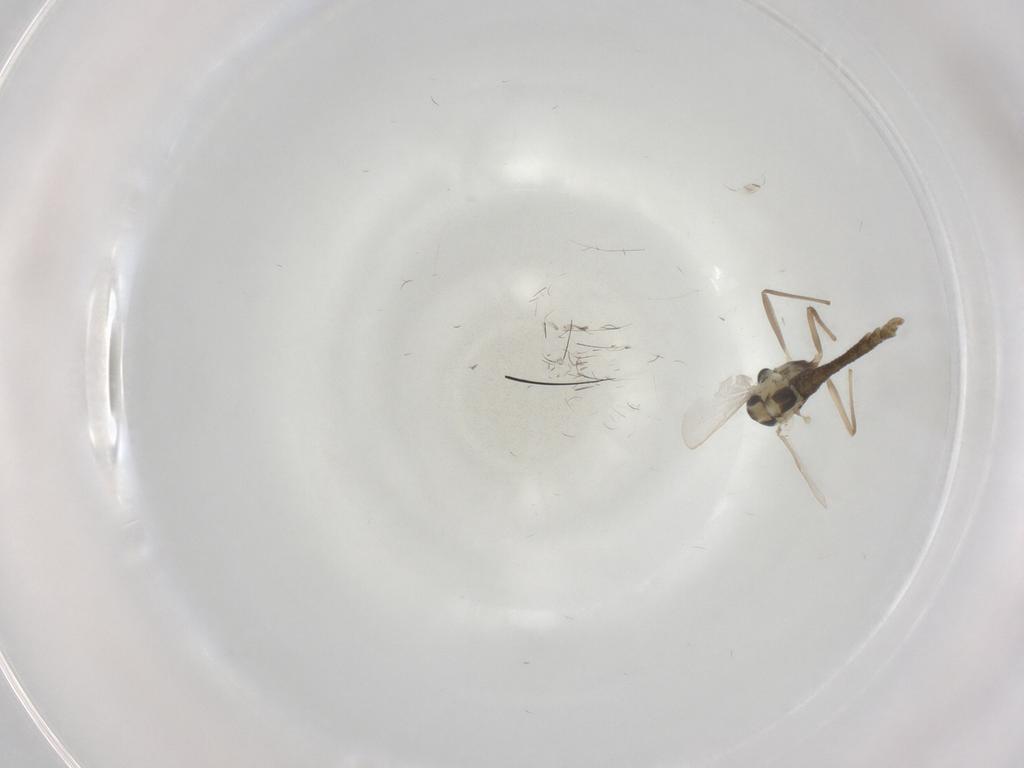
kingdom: Animalia
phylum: Arthropoda
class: Insecta
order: Diptera
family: Chironomidae
